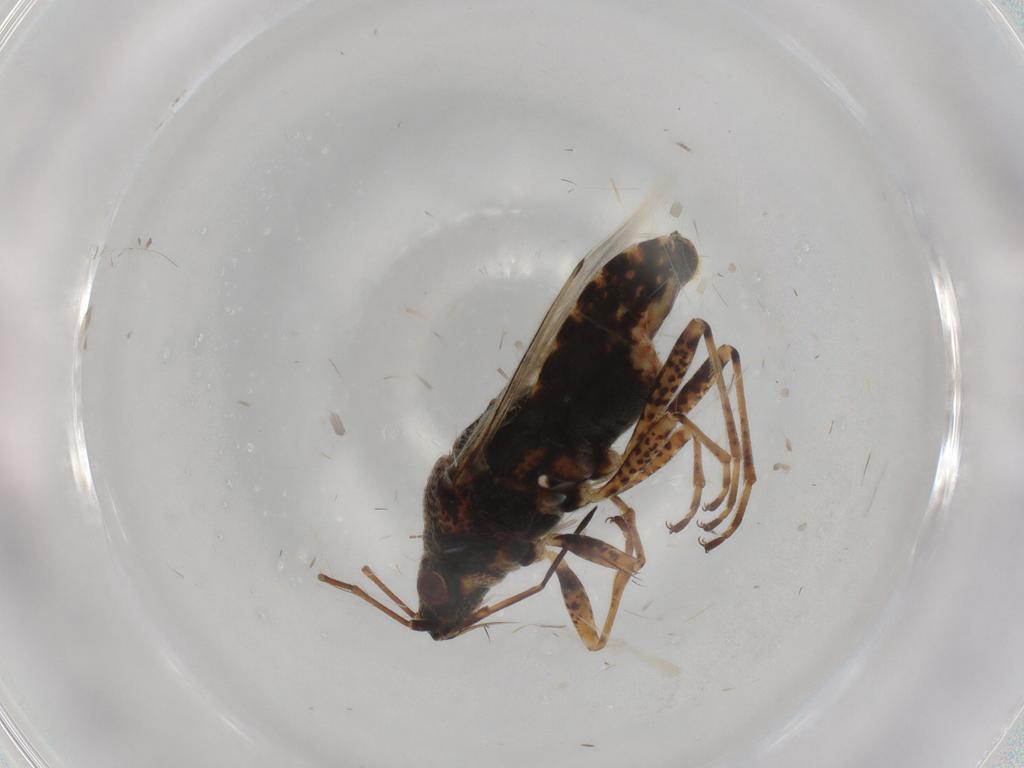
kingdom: Animalia
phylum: Arthropoda
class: Insecta
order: Hemiptera
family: Lygaeidae
